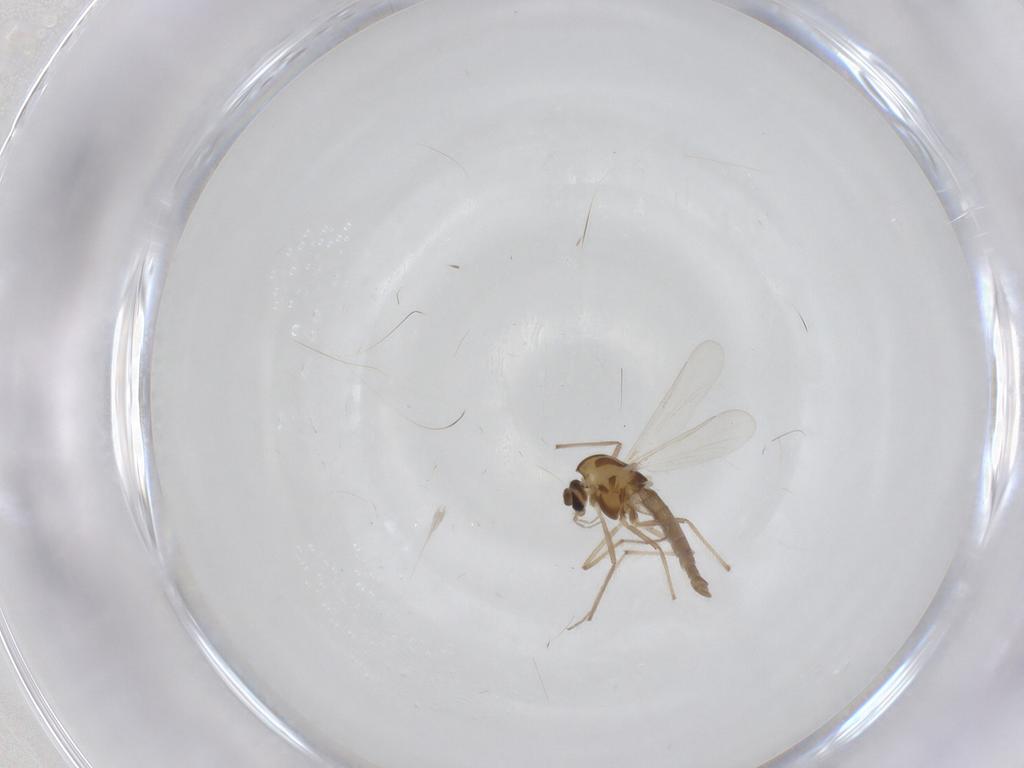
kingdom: Animalia
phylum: Arthropoda
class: Insecta
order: Diptera
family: Chironomidae
